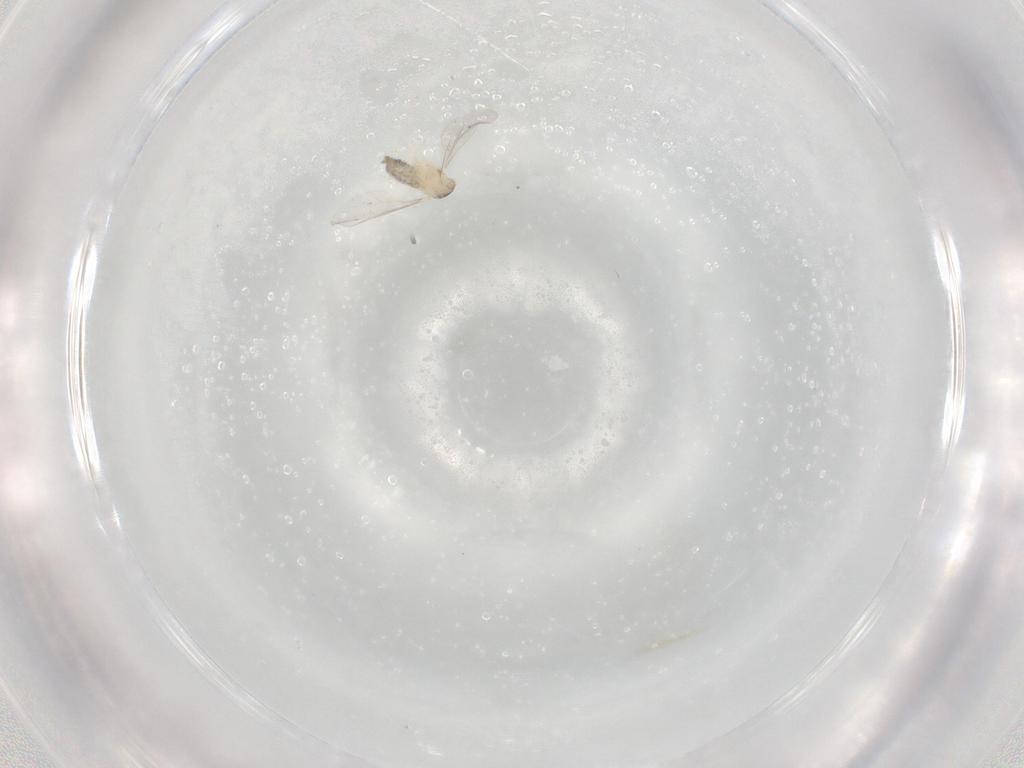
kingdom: Animalia
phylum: Arthropoda
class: Insecta
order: Diptera
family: Cecidomyiidae
